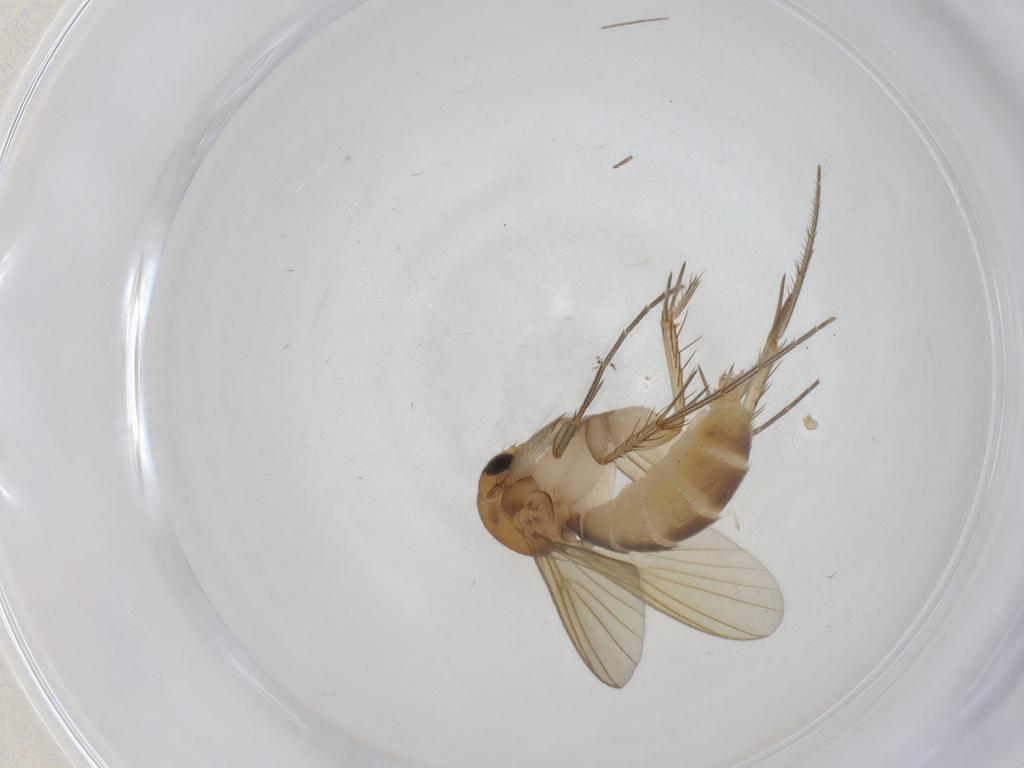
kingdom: Animalia
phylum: Arthropoda
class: Insecta
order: Diptera
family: Mycetophilidae
